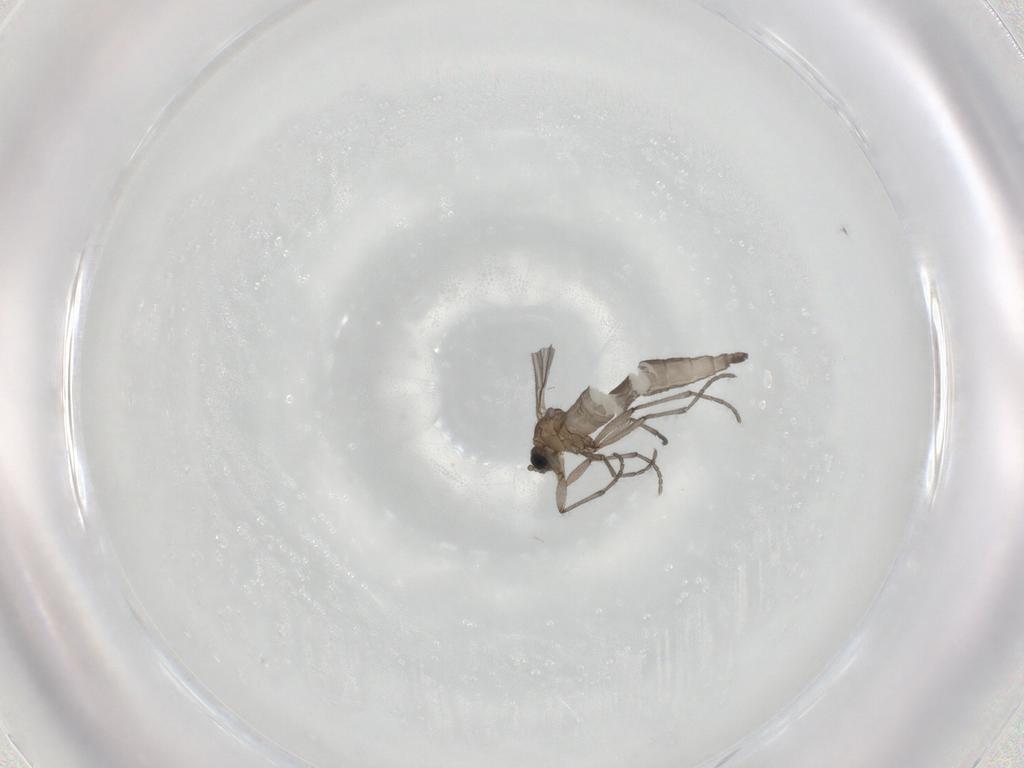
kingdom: Animalia
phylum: Arthropoda
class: Insecta
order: Diptera
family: Sciaridae
